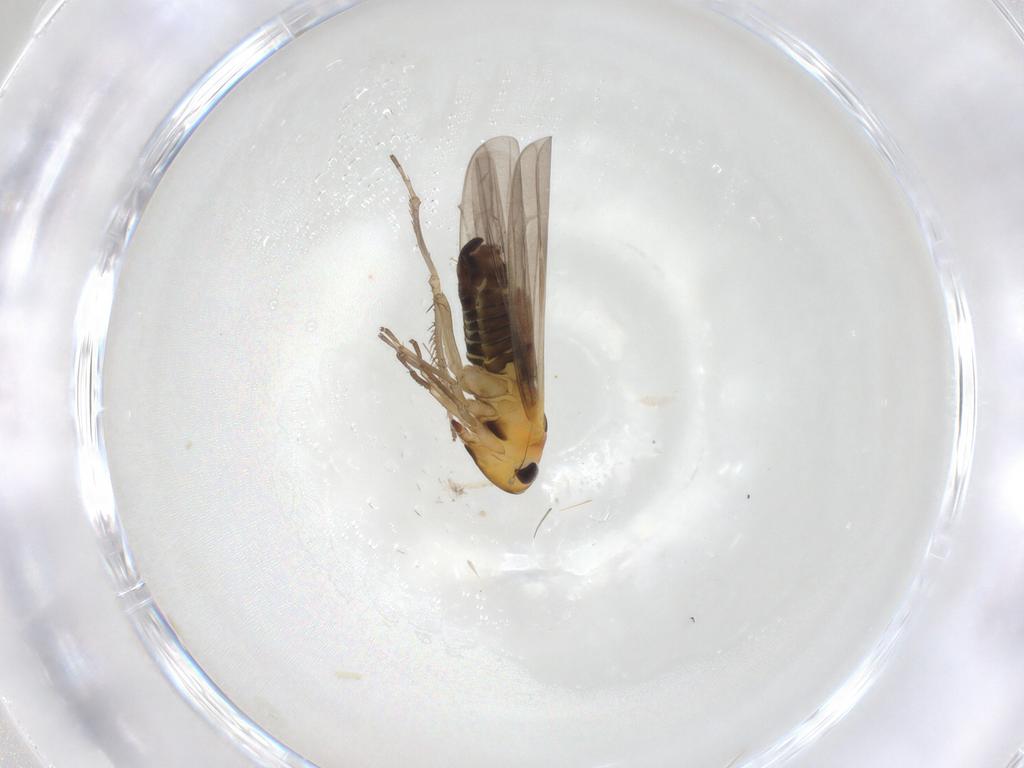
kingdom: Animalia
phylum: Arthropoda
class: Insecta
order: Hemiptera
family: Cicadellidae
